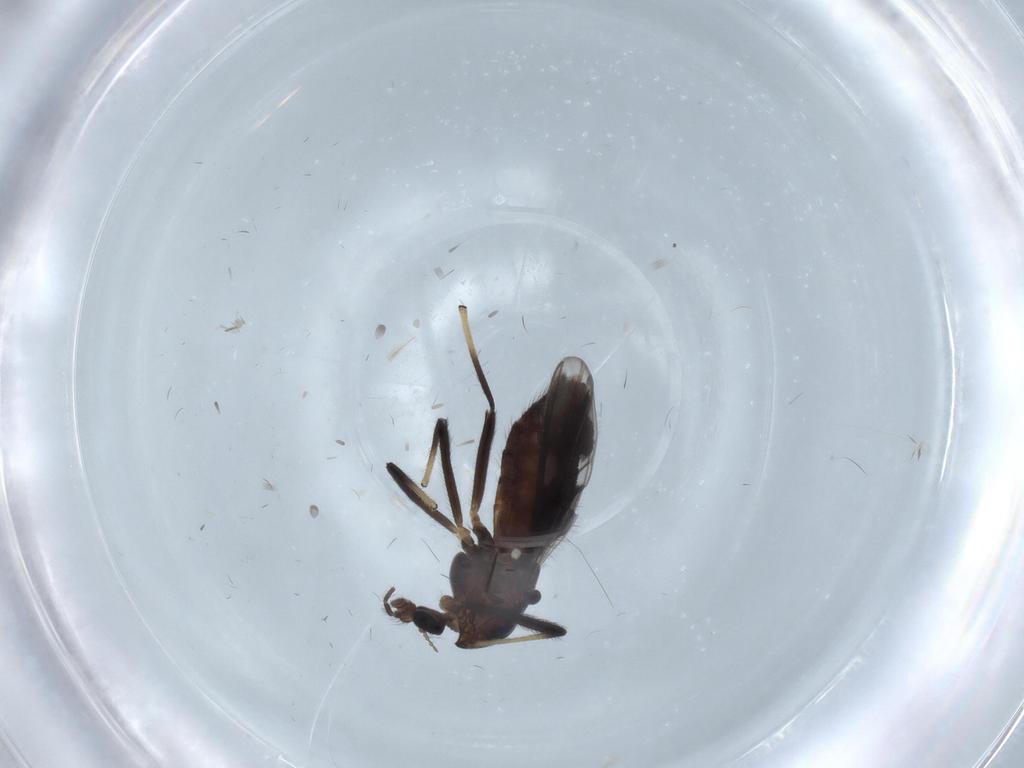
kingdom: Animalia
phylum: Arthropoda
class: Insecta
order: Diptera
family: Chironomidae
